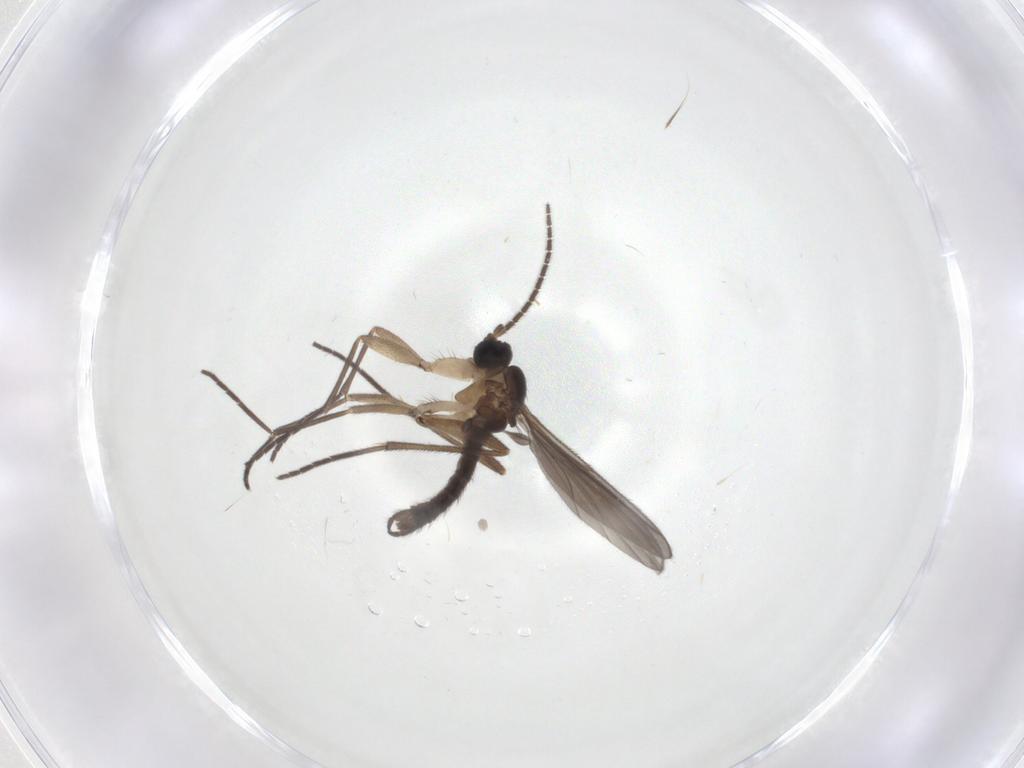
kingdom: Animalia
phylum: Arthropoda
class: Insecta
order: Diptera
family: Sciaridae
